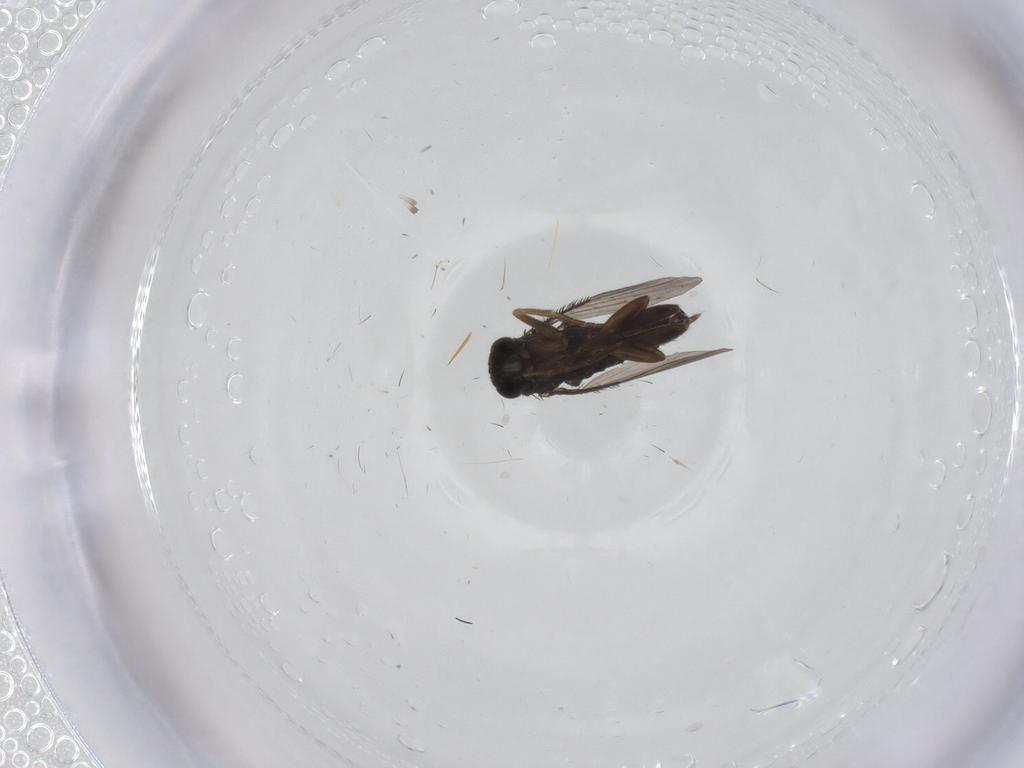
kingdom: Animalia
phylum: Arthropoda
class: Insecta
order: Diptera
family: Phoridae
